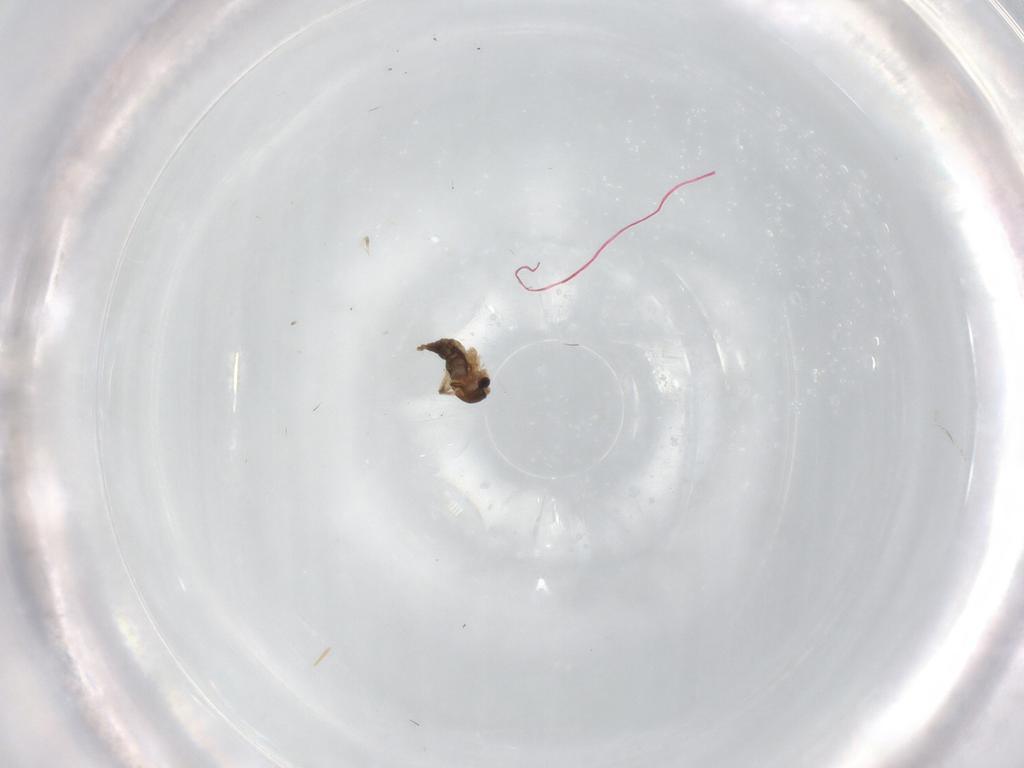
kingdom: Animalia
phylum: Arthropoda
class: Insecta
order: Diptera
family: Cecidomyiidae
